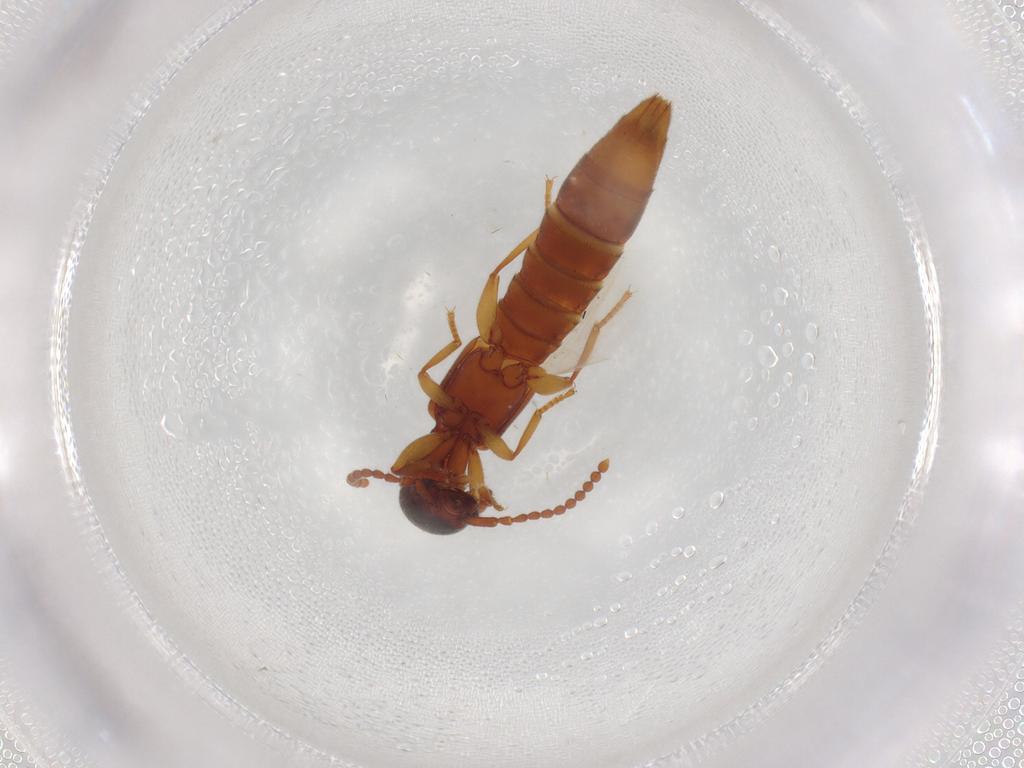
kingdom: Animalia
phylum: Arthropoda
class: Insecta
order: Coleoptera
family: Staphylinidae
